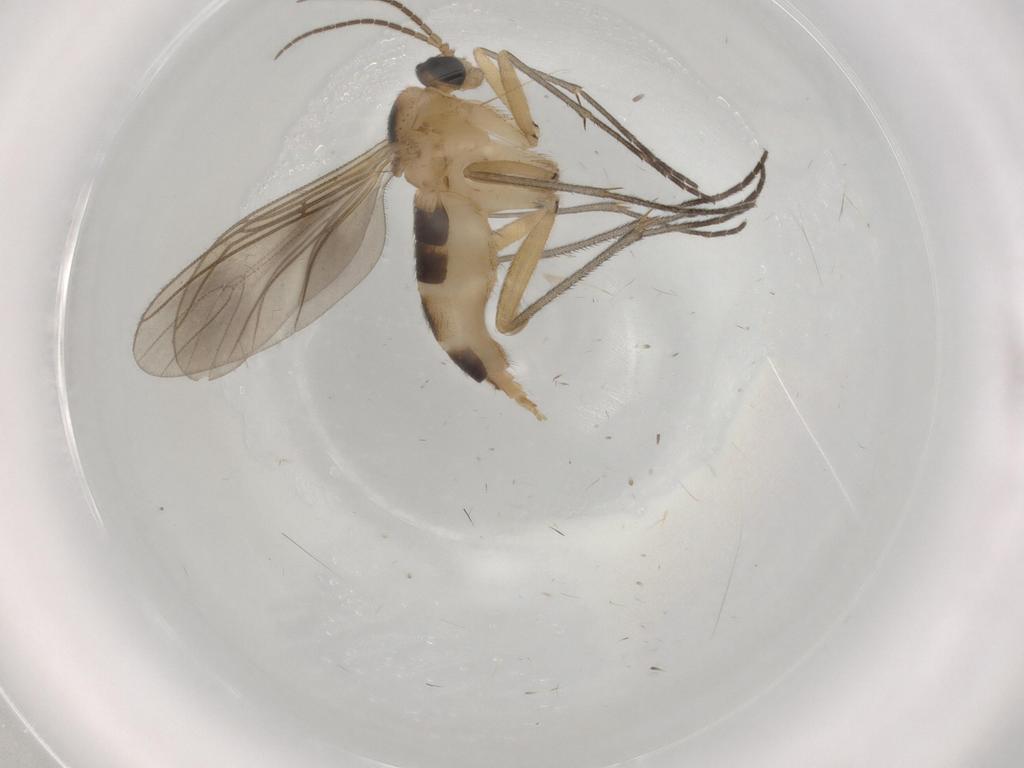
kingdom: Animalia
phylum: Arthropoda
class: Insecta
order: Diptera
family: Sciaridae
